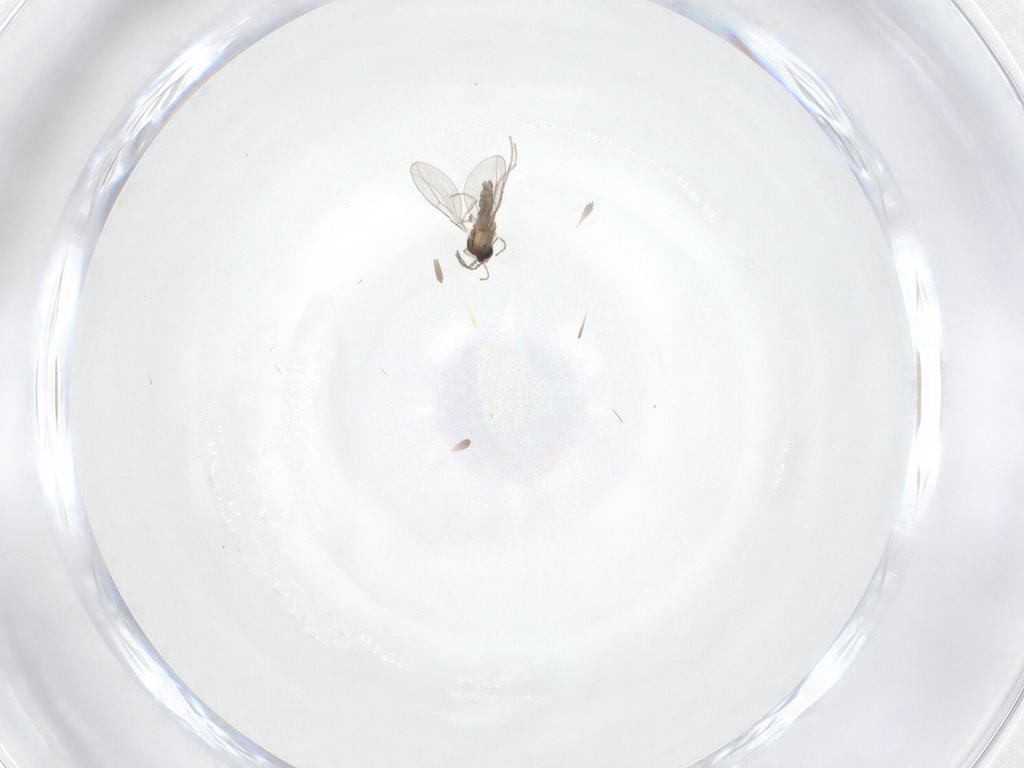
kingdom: Animalia
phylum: Arthropoda
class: Insecta
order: Diptera
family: Ceratopogonidae
